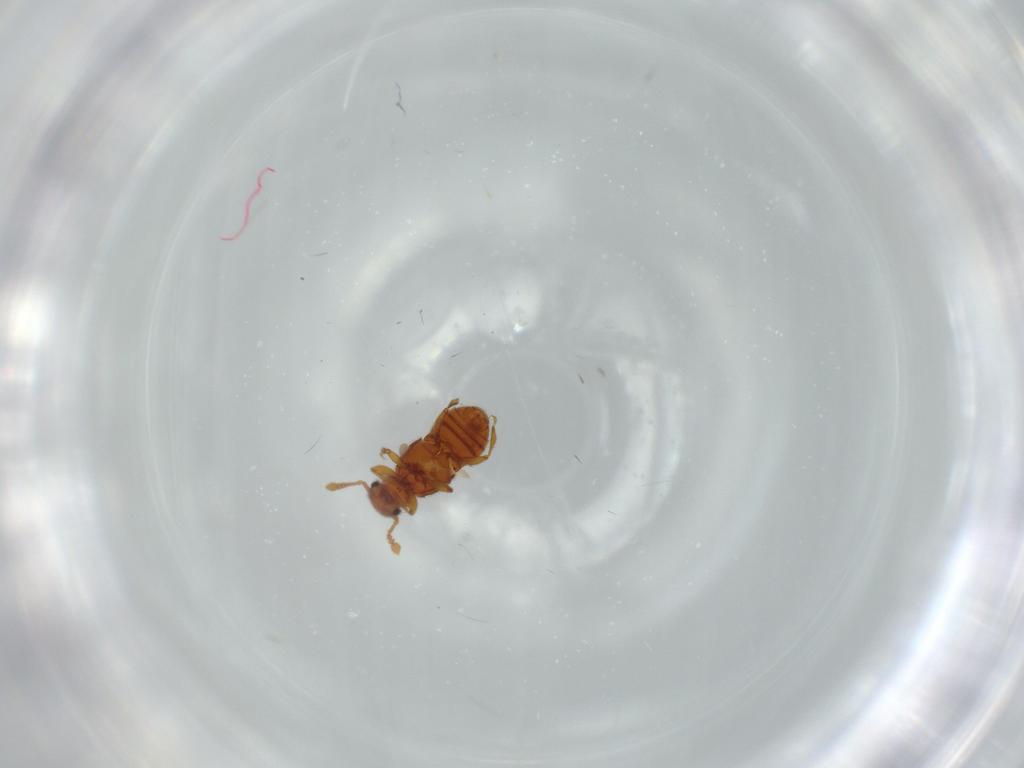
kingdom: Animalia
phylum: Arthropoda
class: Insecta
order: Coleoptera
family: Staphylinidae
